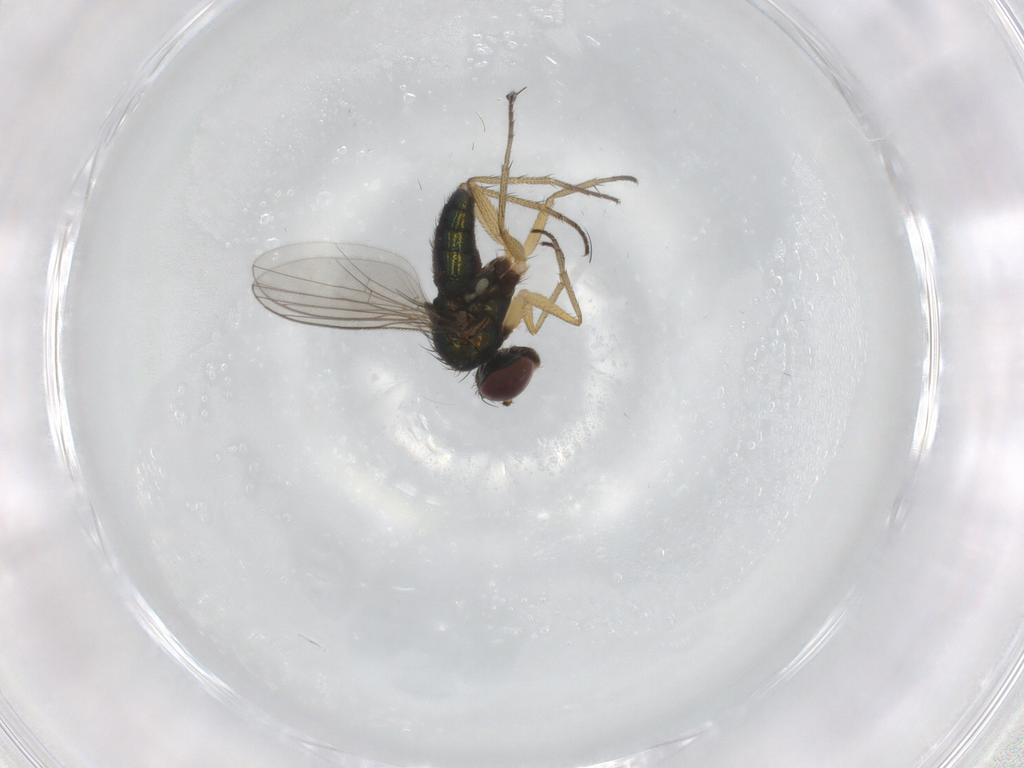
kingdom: Animalia
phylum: Arthropoda
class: Insecta
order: Diptera
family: Dolichopodidae
